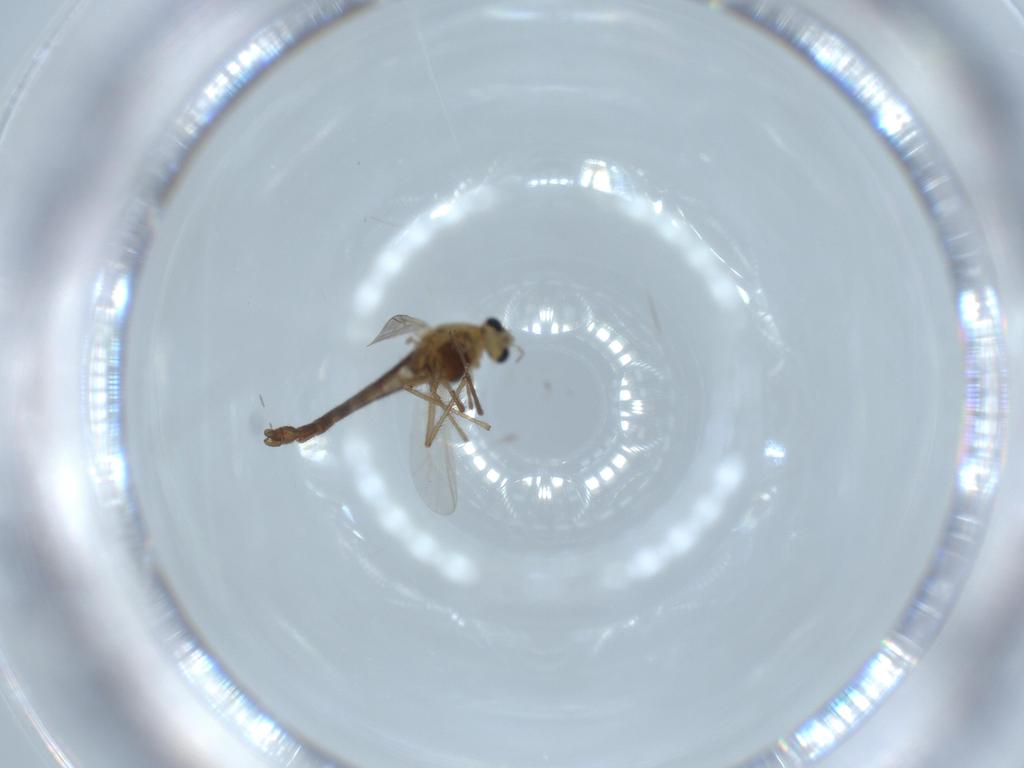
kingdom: Animalia
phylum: Arthropoda
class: Insecta
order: Diptera
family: Chironomidae
